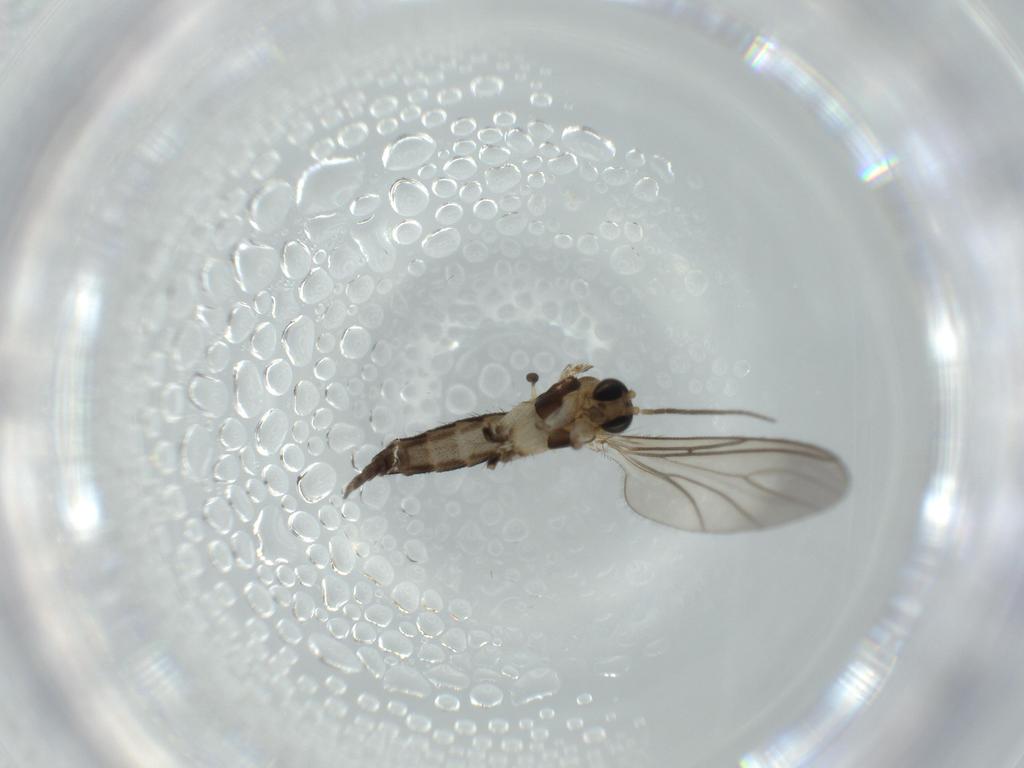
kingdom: Animalia
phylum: Arthropoda
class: Insecta
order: Diptera
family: Sciaridae
